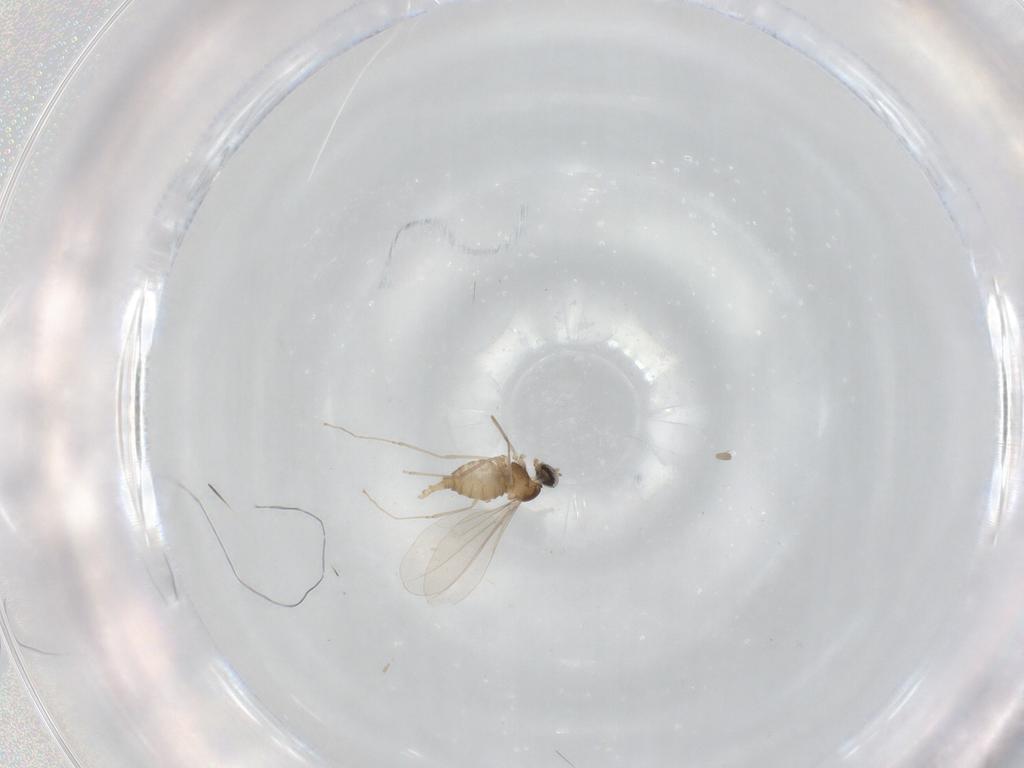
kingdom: Animalia
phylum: Arthropoda
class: Insecta
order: Diptera
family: Cecidomyiidae
